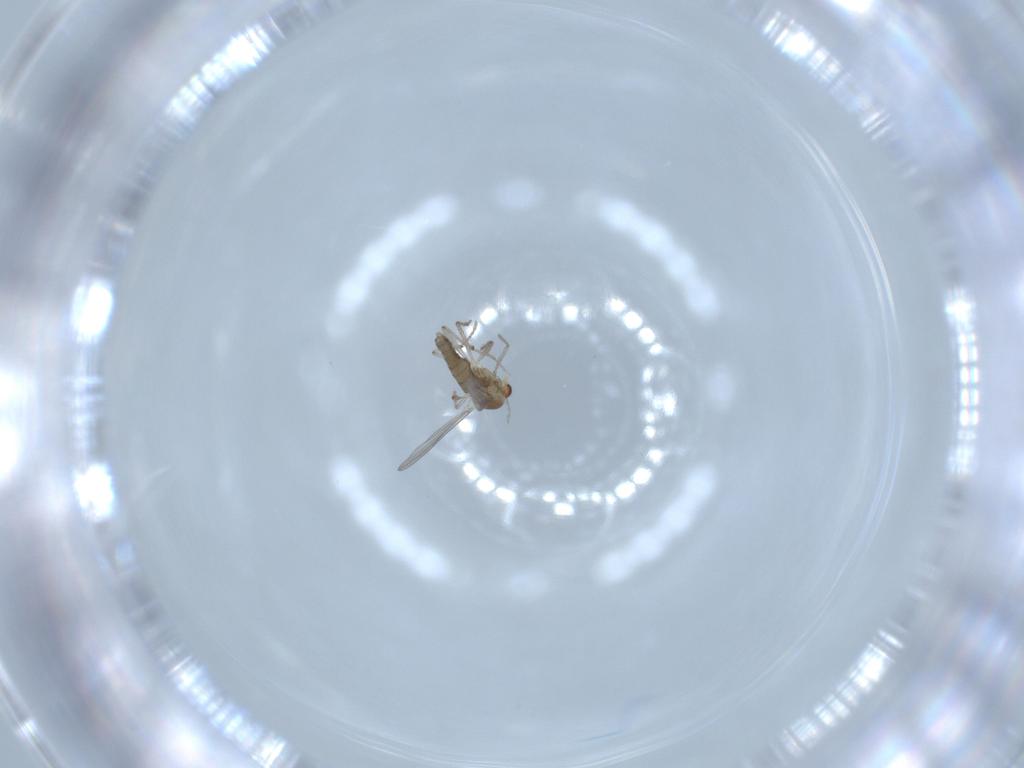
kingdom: Animalia
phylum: Arthropoda
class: Insecta
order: Diptera
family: Chironomidae
